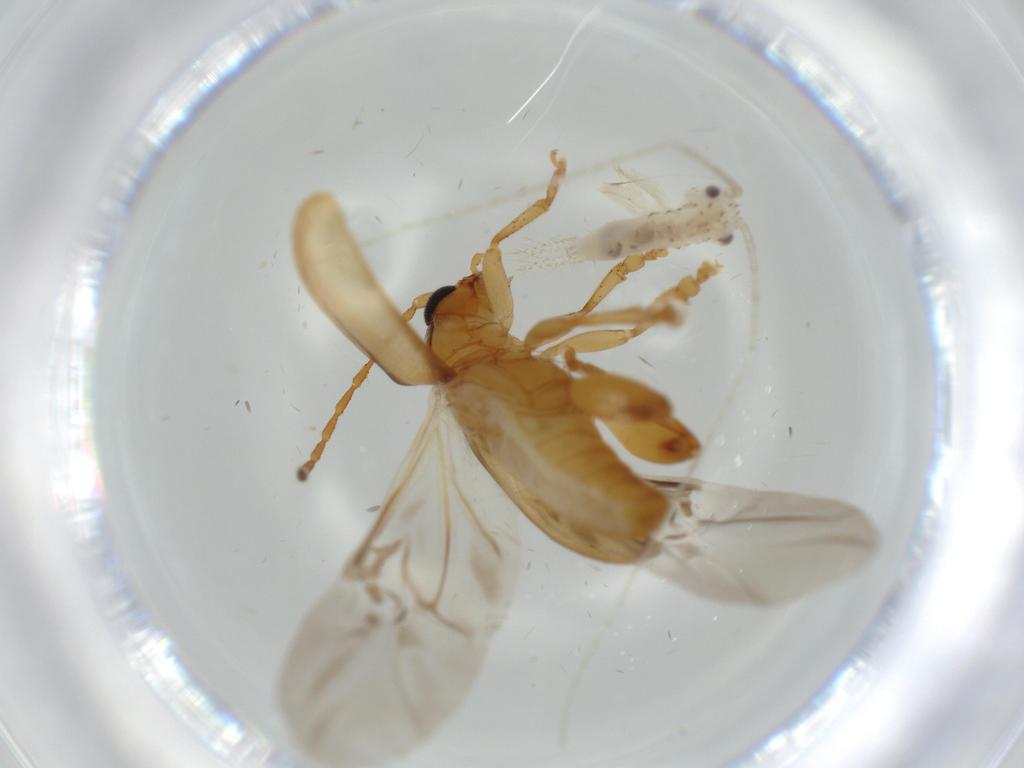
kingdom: Animalia
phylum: Arthropoda
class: Insecta
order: Coleoptera
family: Chrysomelidae
